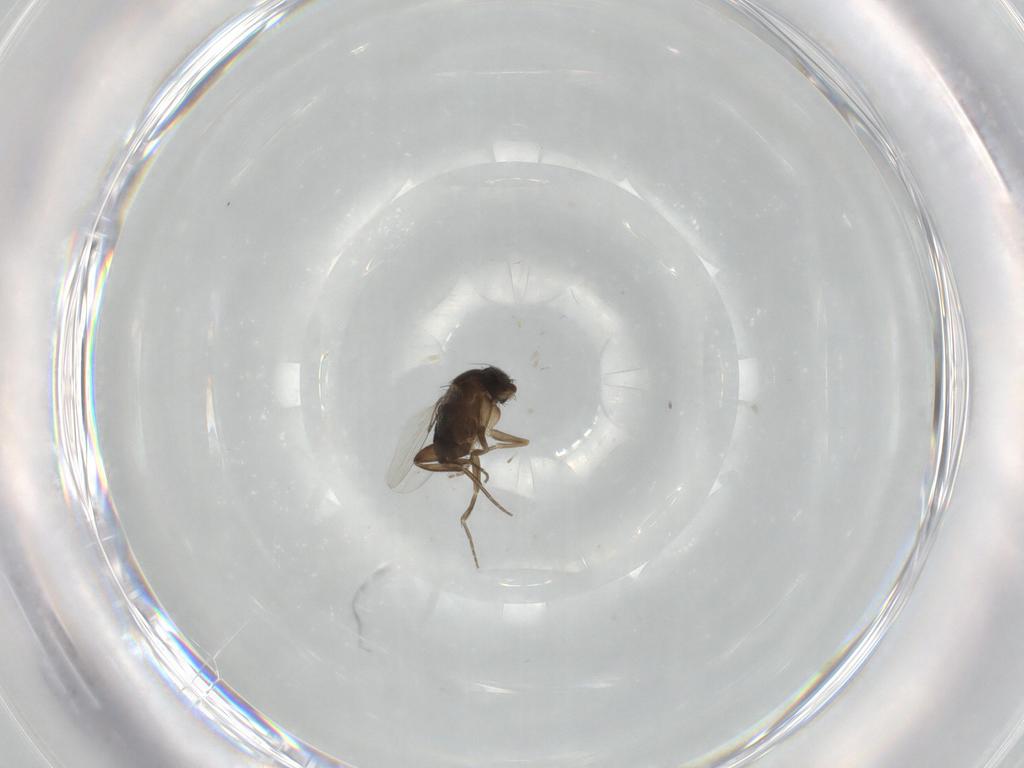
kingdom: Animalia
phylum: Arthropoda
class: Insecta
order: Diptera
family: Phoridae
